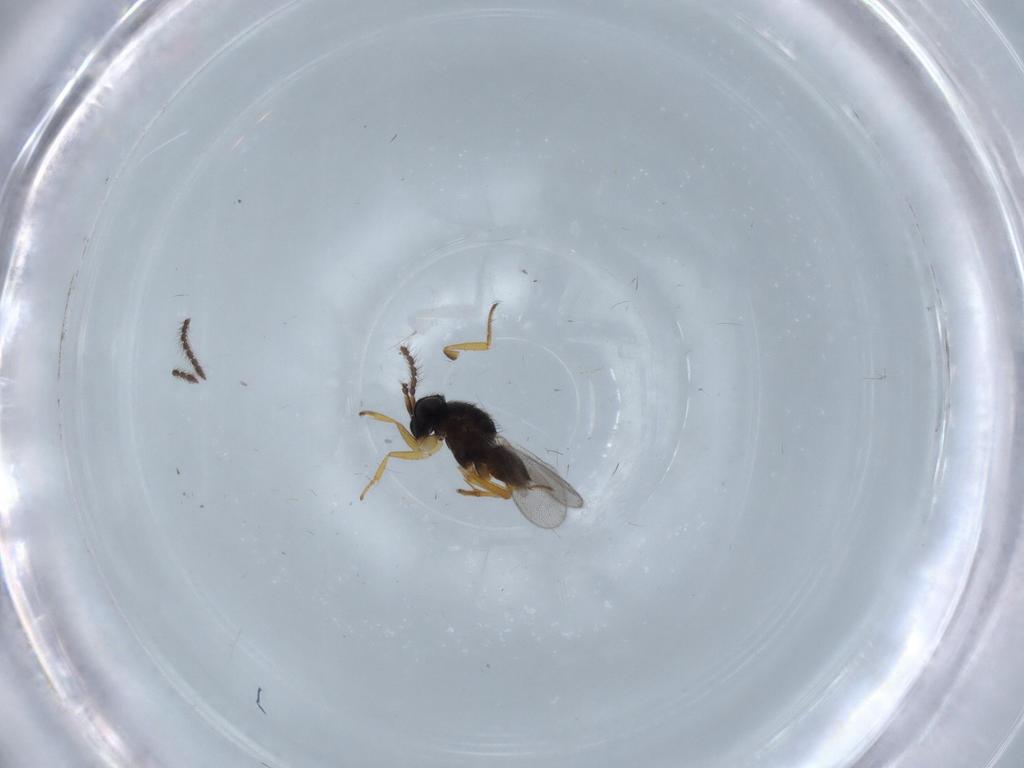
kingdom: Animalia
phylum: Arthropoda
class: Insecta
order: Hymenoptera
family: Encyrtidae
